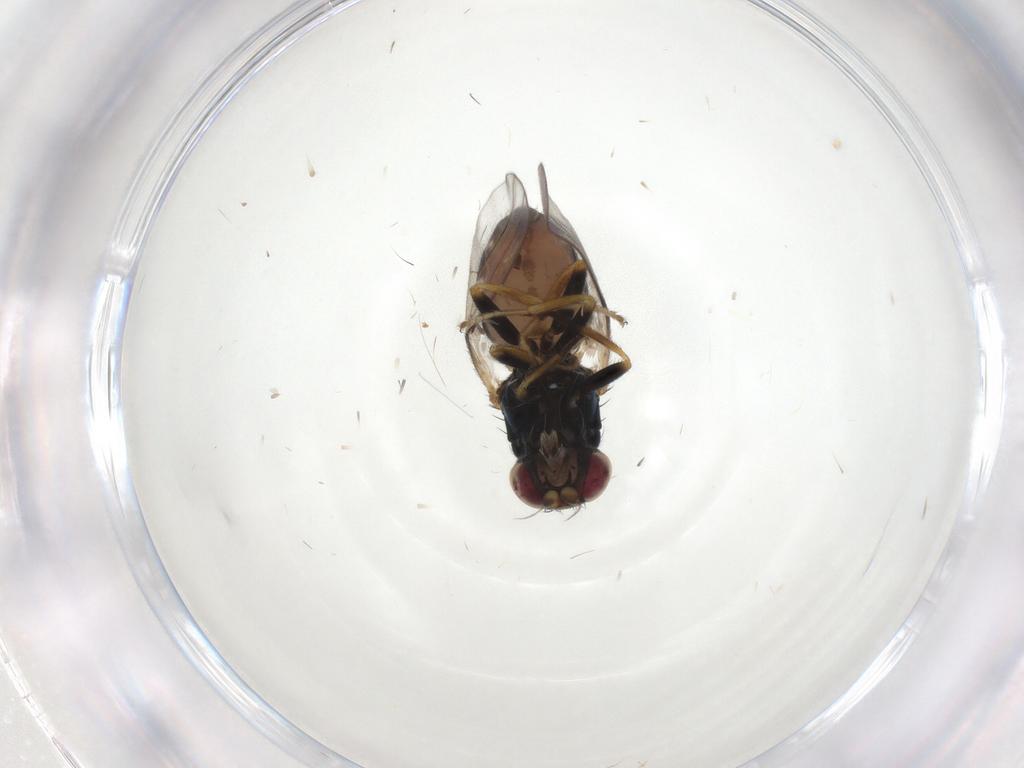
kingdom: Animalia
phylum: Arthropoda
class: Insecta
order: Diptera
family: Chloropidae
